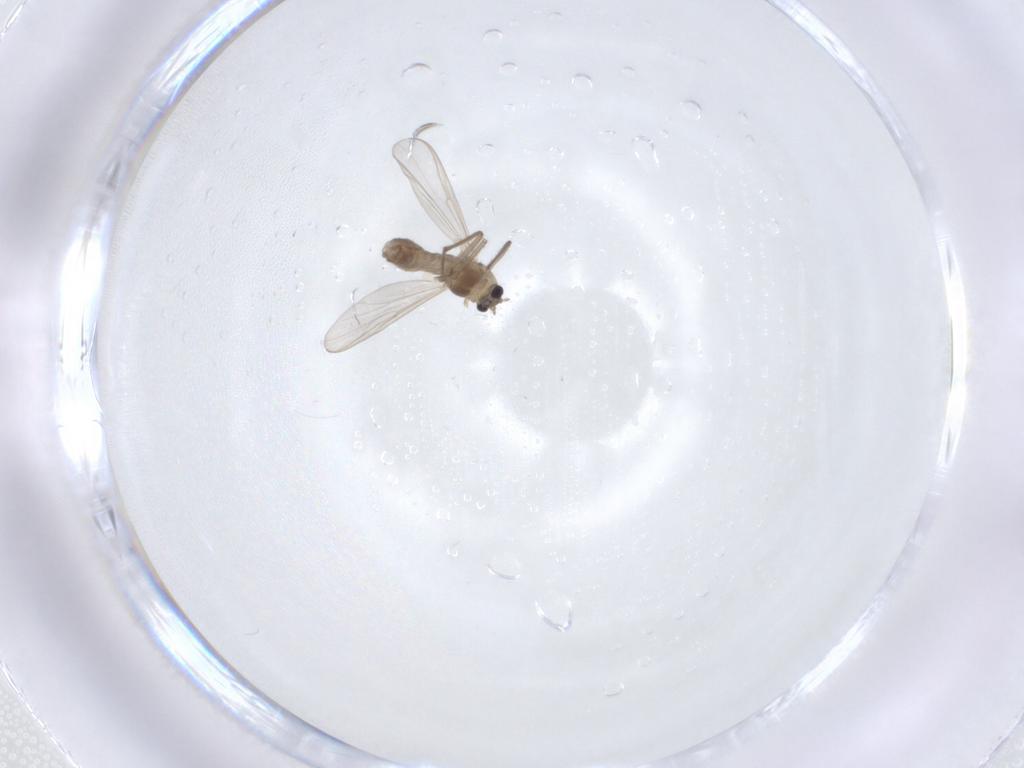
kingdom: Animalia
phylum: Arthropoda
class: Insecta
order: Diptera
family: Chironomidae
